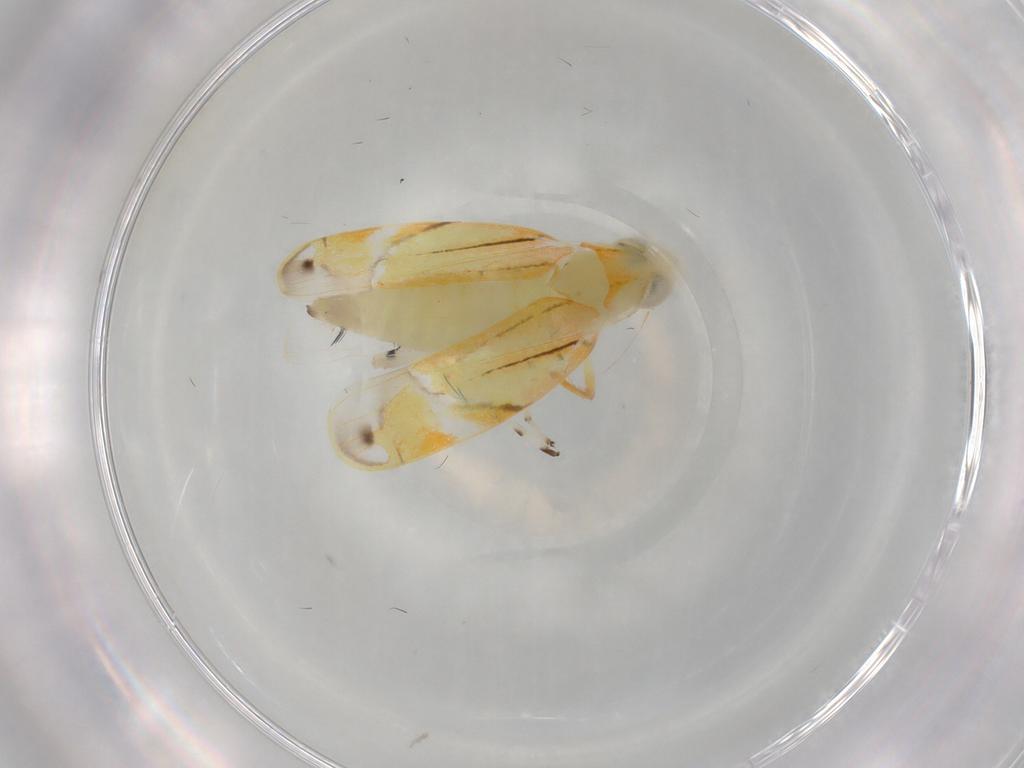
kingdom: Animalia
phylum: Arthropoda
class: Insecta
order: Hemiptera
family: Cicadellidae
